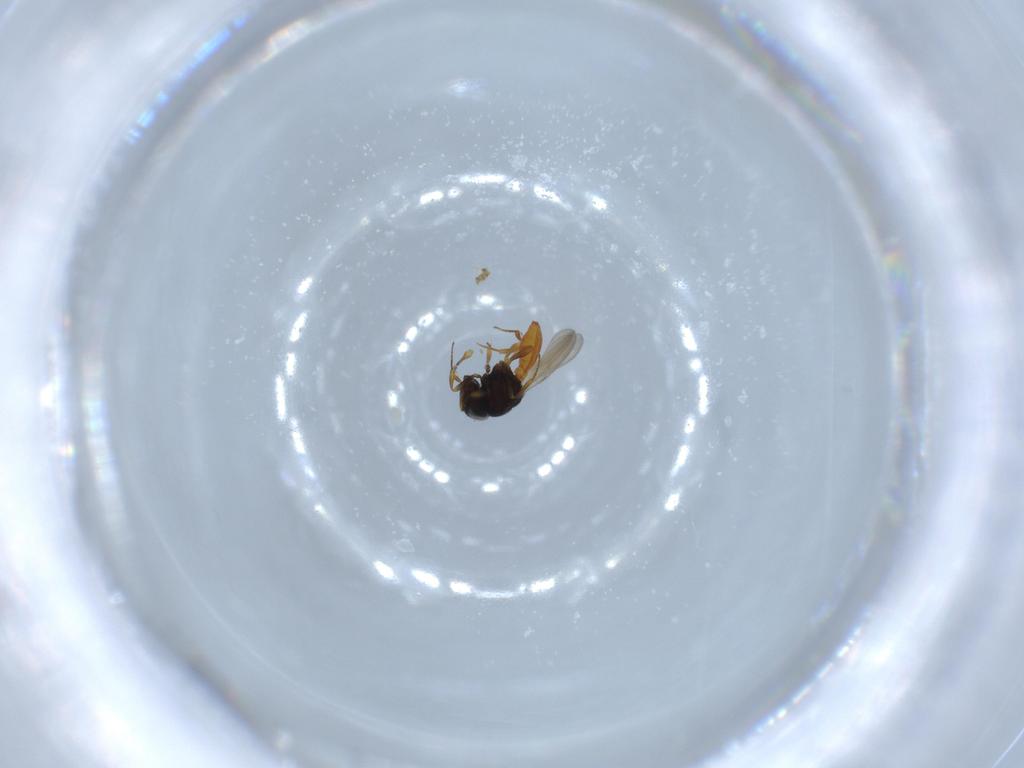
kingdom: Animalia
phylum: Arthropoda
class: Insecta
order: Hymenoptera
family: Scelionidae
